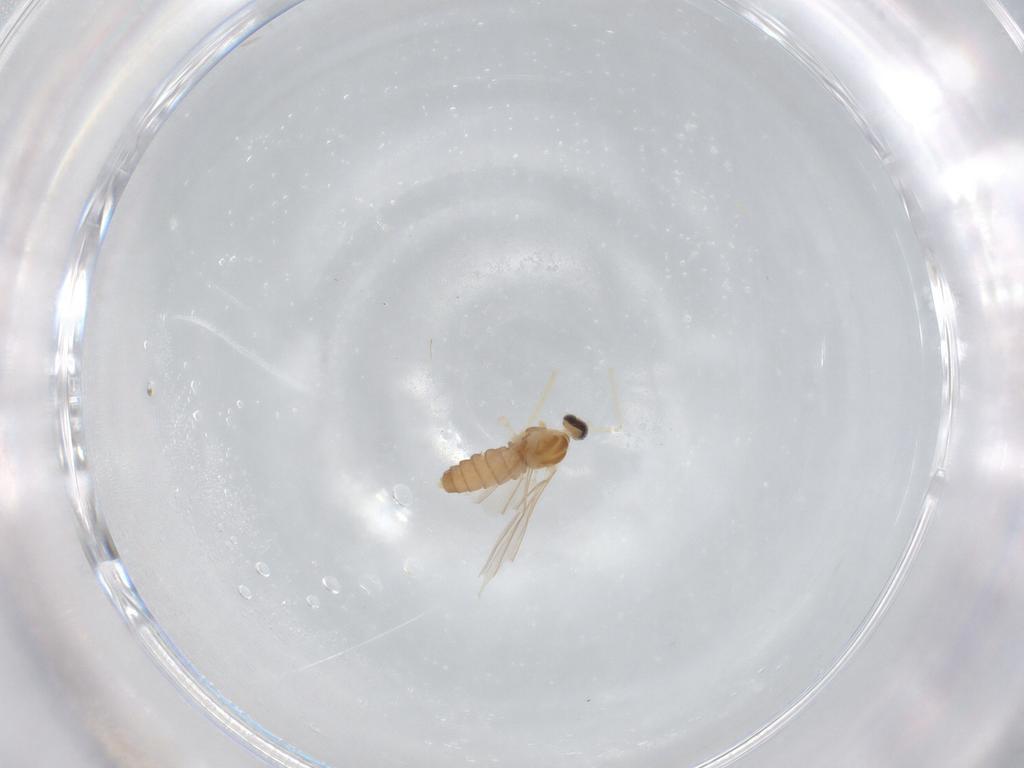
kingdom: Animalia
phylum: Arthropoda
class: Insecta
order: Diptera
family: Cecidomyiidae
